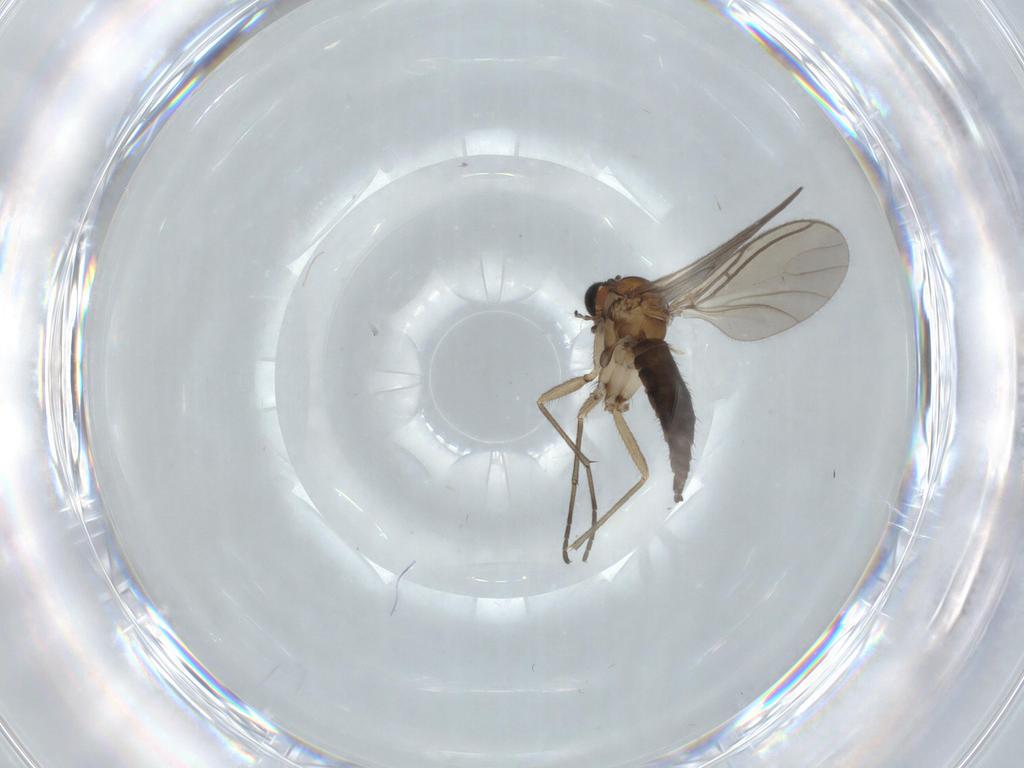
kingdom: Animalia
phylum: Arthropoda
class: Insecta
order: Diptera
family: Sciaridae
